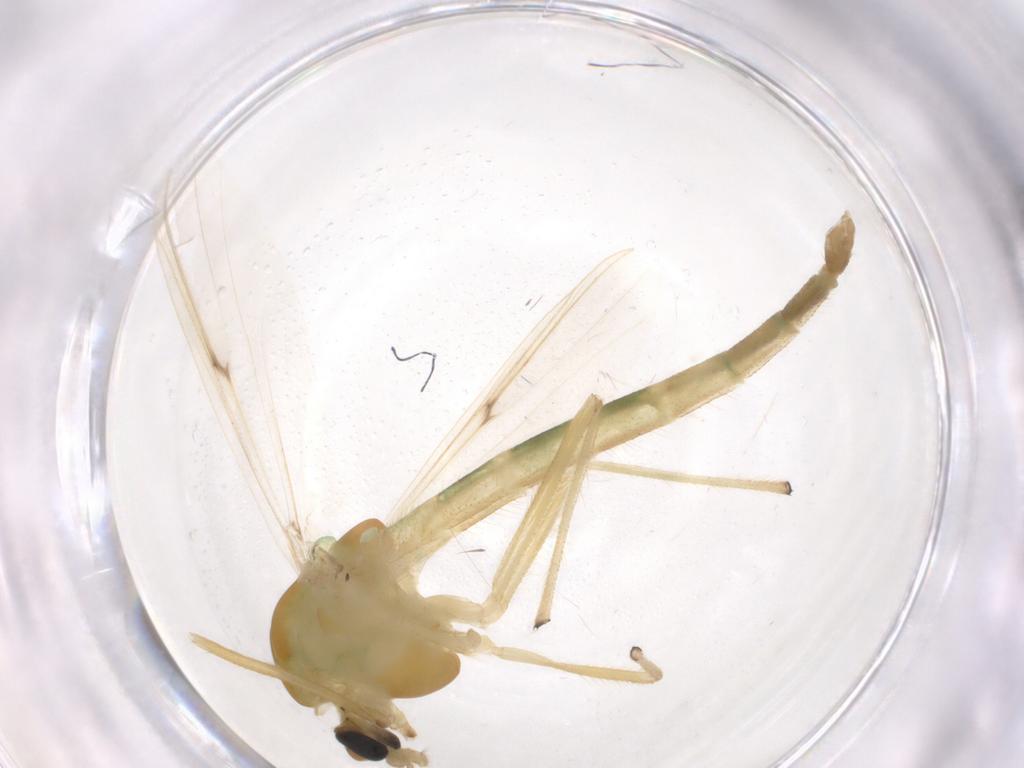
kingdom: Animalia
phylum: Arthropoda
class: Insecta
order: Diptera
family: Chironomidae
